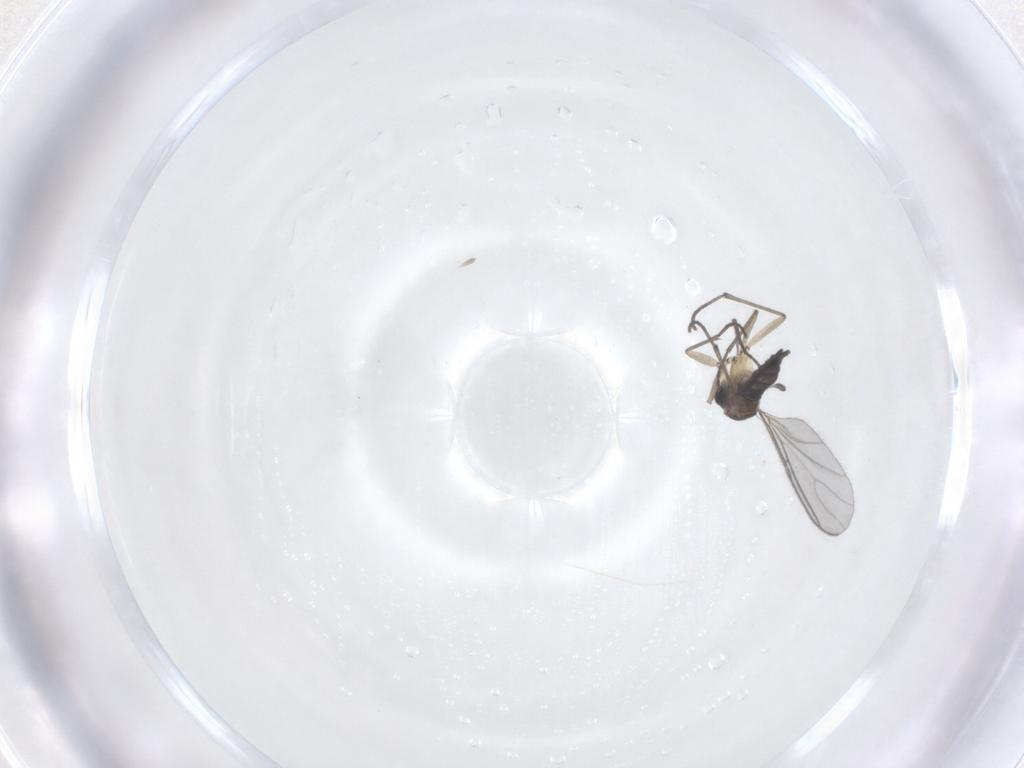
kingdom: Animalia
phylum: Arthropoda
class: Insecta
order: Diptera
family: Sciaridae
